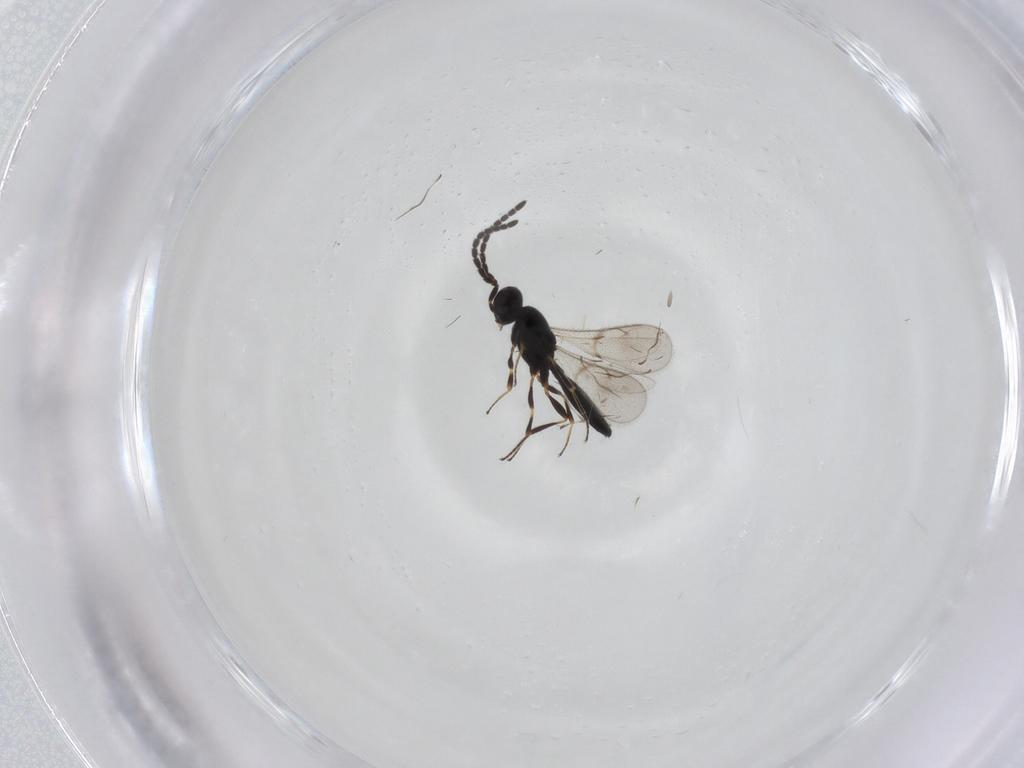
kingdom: Animalia
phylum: Arthropoda
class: Insecta
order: Hymenoptera
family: Scelionidae
